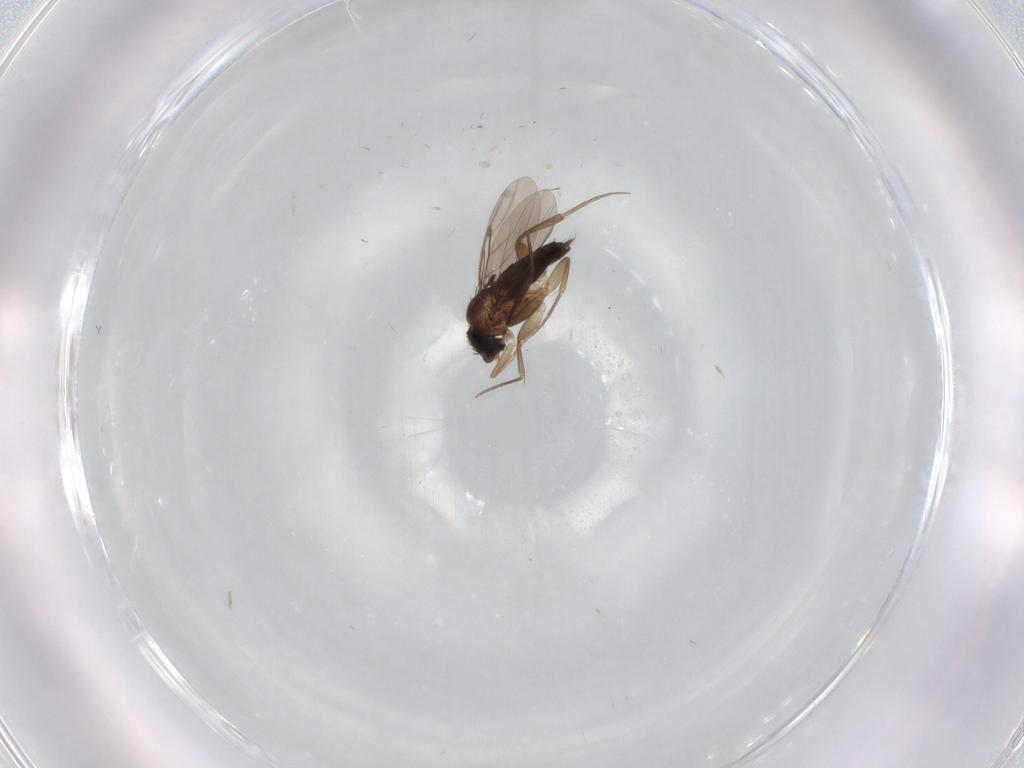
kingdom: Animalia
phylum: Arthropoda
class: Insecta
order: Diptera
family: Phoridae
